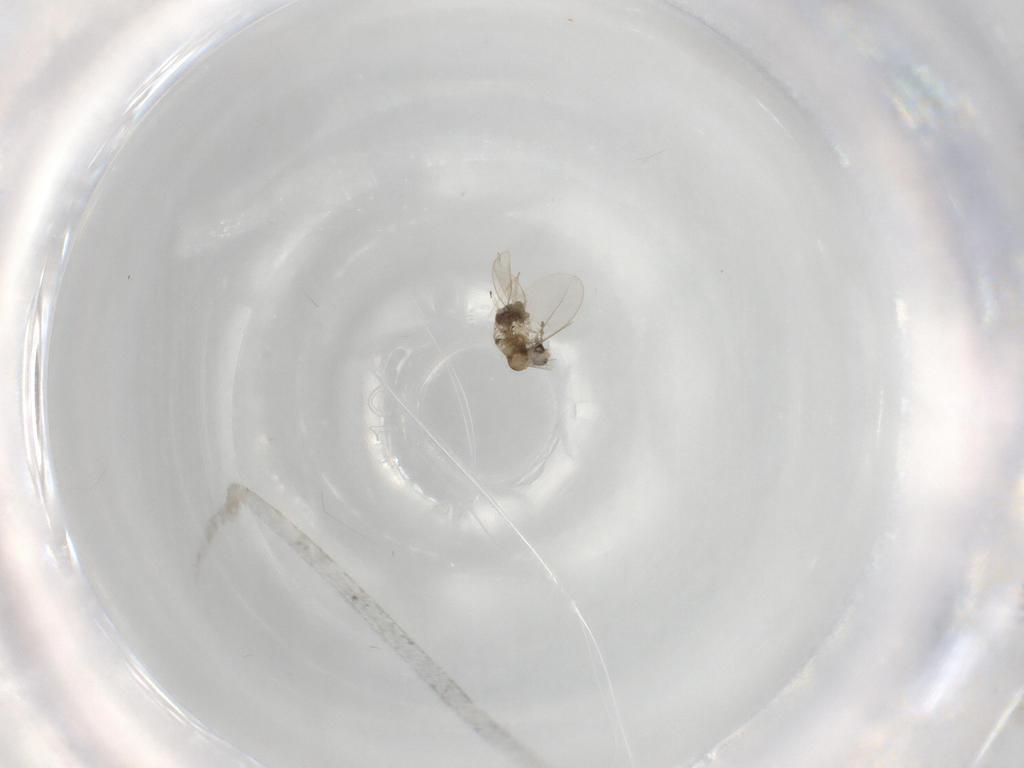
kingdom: Animalia
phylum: Arthropoda
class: Insecta
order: Diptera
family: Cecidomyiidae
